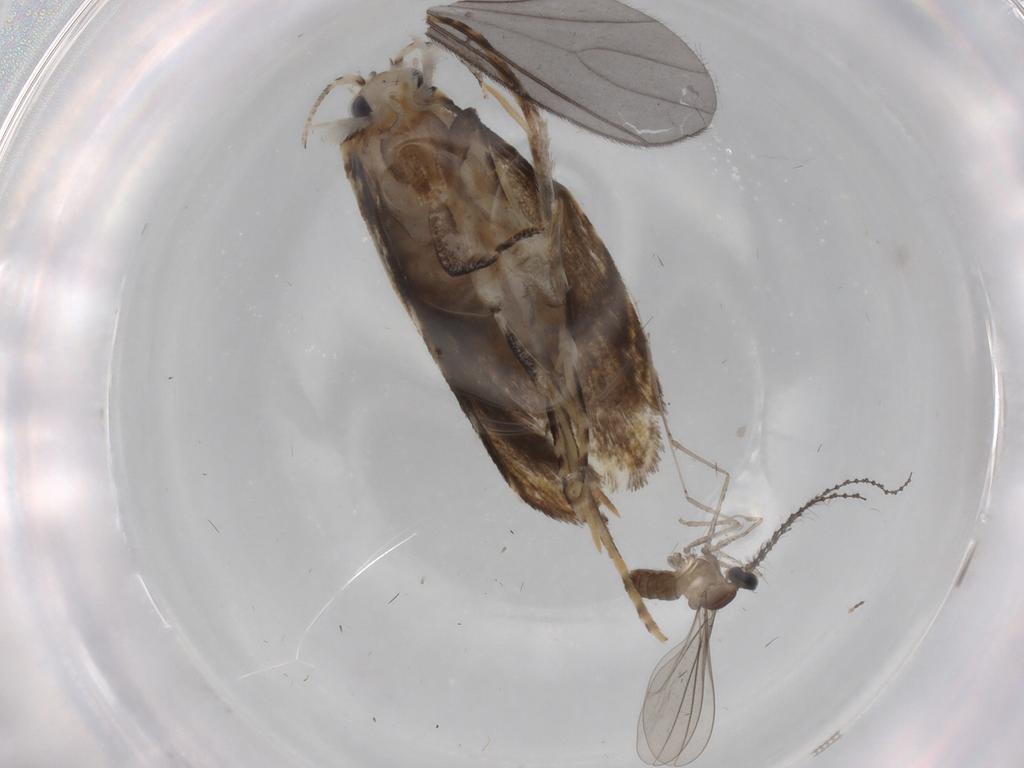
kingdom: Animalia
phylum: Arthropoda
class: Insecta
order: Lepidoptera
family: Tineidae
